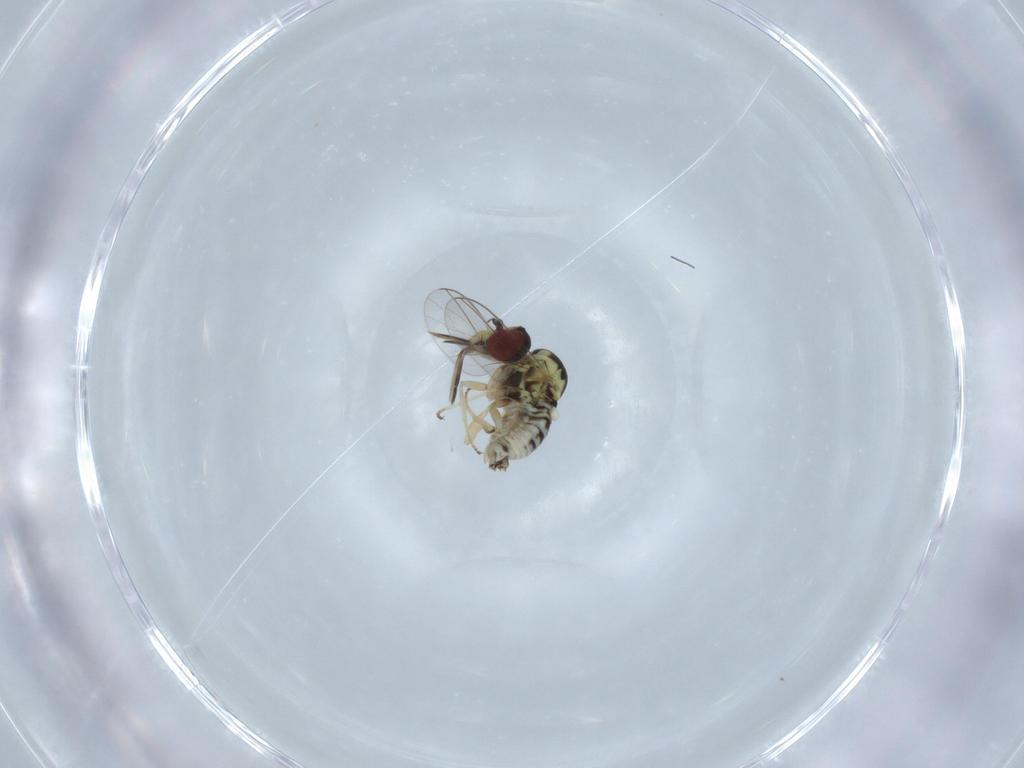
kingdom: Animalia
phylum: Arthropoda
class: Insecta
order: Diptera
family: Bombyliidae
